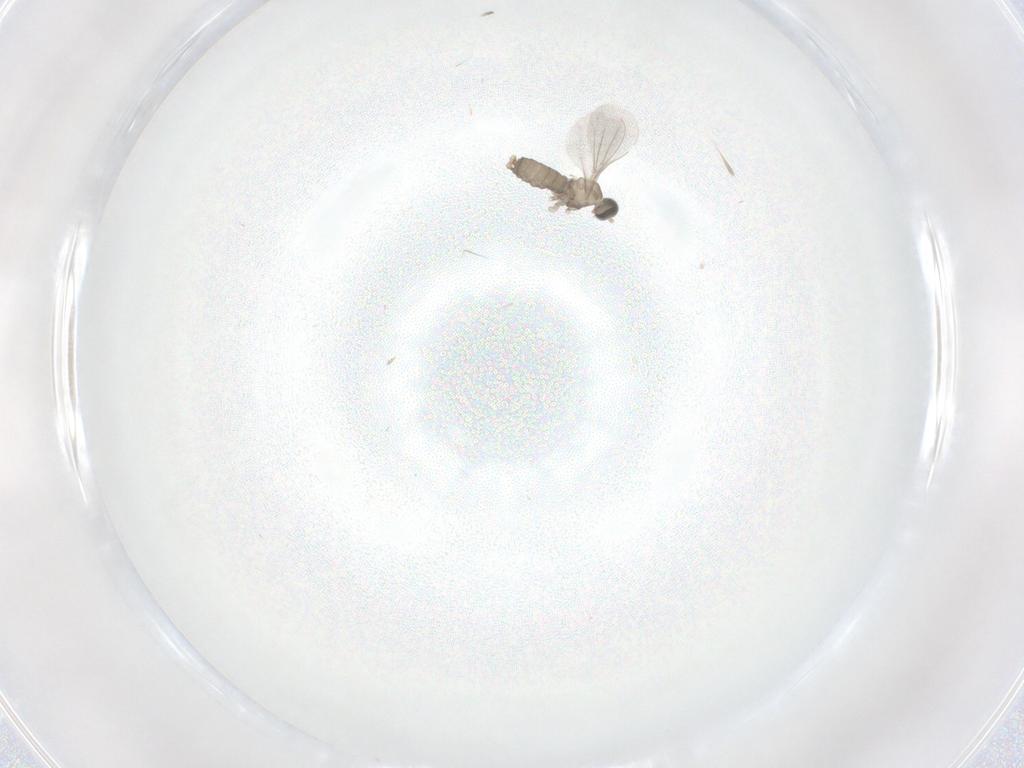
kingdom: Animalia
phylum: Arthropoda
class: Insecta
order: Diptera
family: Cecidomyiidae
